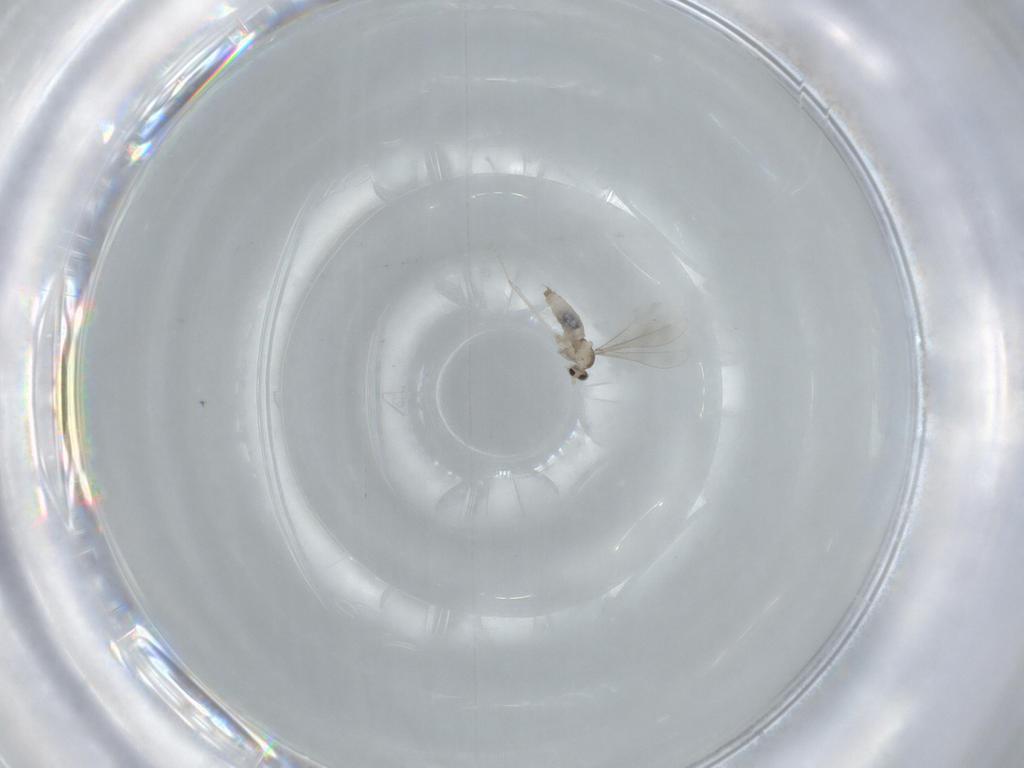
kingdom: Animalia
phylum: Arthropoda
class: Insecta
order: Diptera
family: Cecidomyiidae
